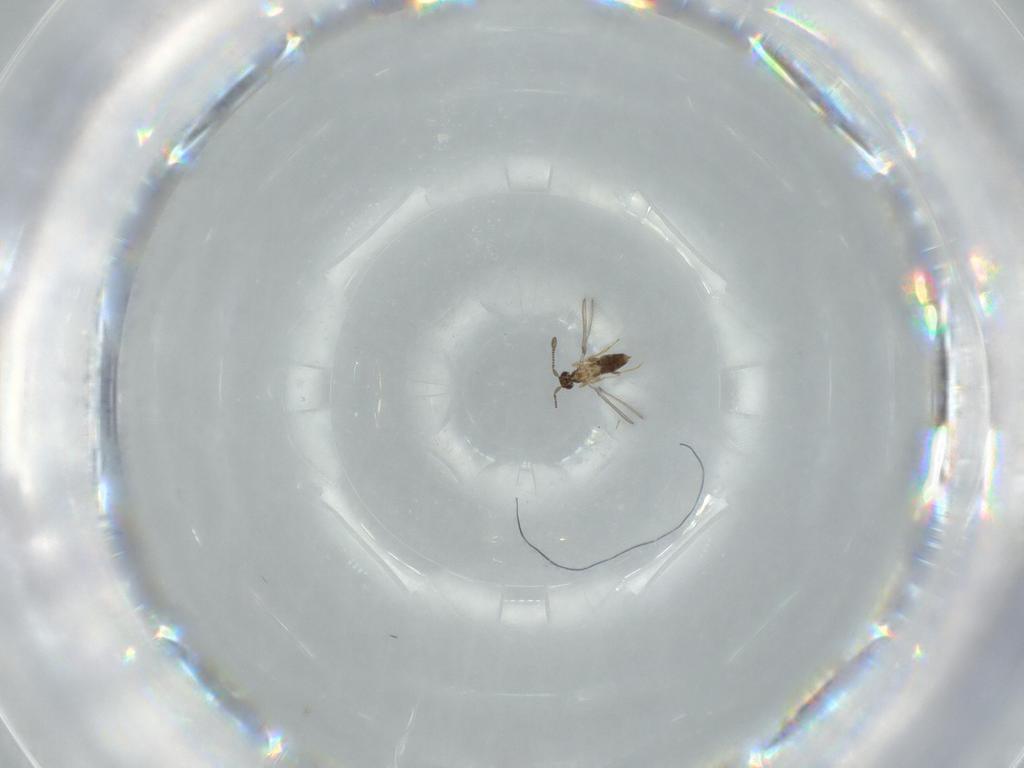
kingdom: Animalia
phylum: Arthropoda
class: Insecta
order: Hymenoptera
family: Mymaridae
